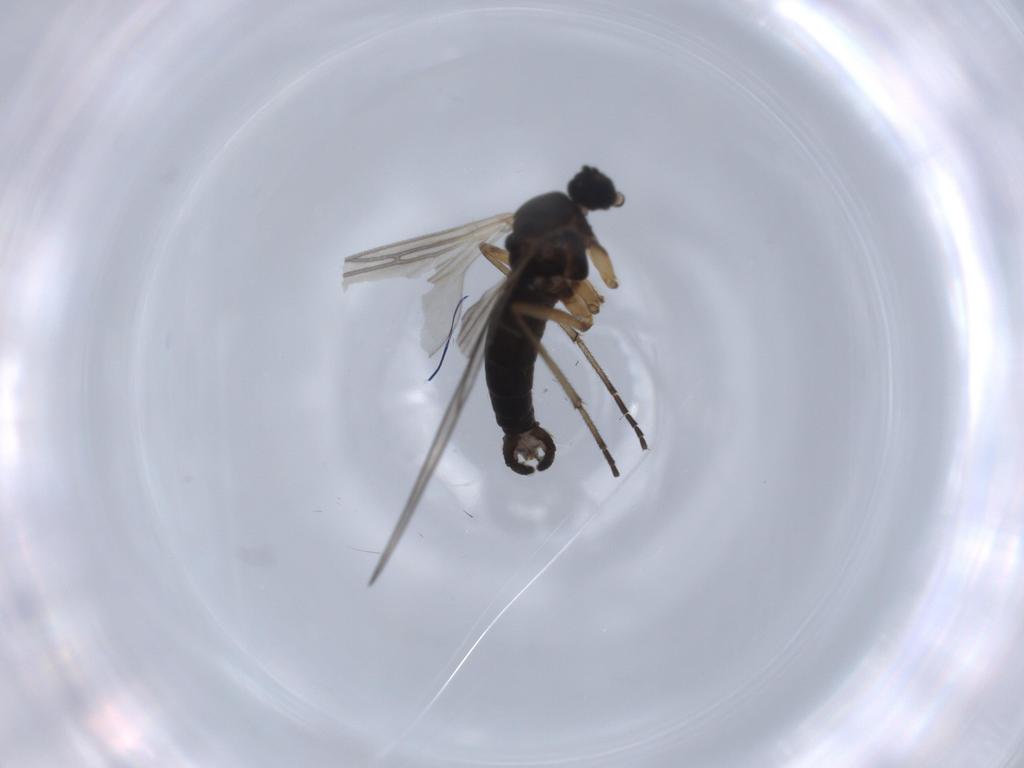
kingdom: Animalia
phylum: Arthropoda
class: Insecta
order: Diptera
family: Sciaridae
